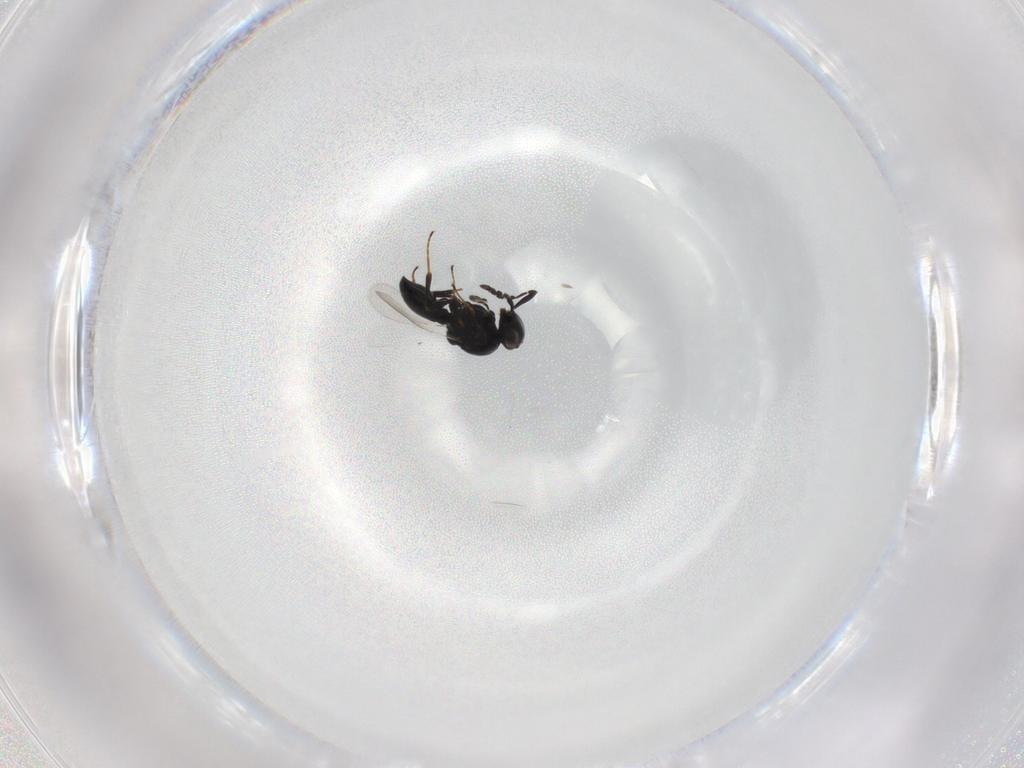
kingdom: Animalia
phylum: Arthropoda
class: Insecta
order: Hymenoptera
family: Platygastridae
